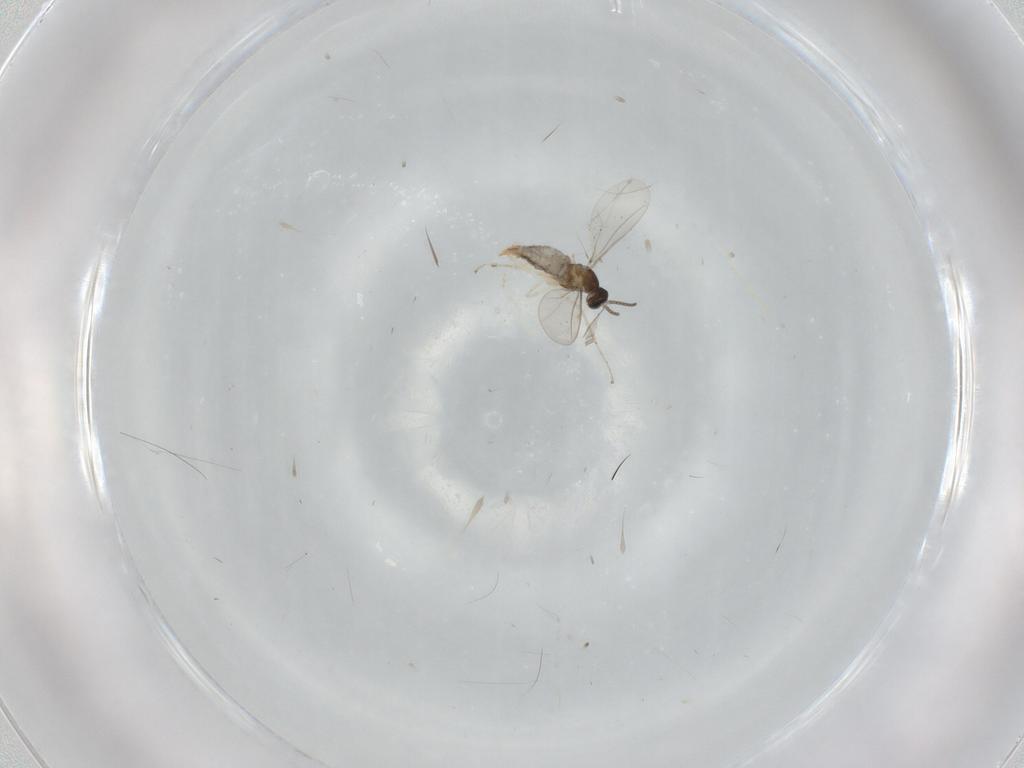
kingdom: Animalia
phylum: Arthropoda
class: Insecta
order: Diptera
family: Cecidomyiidae
